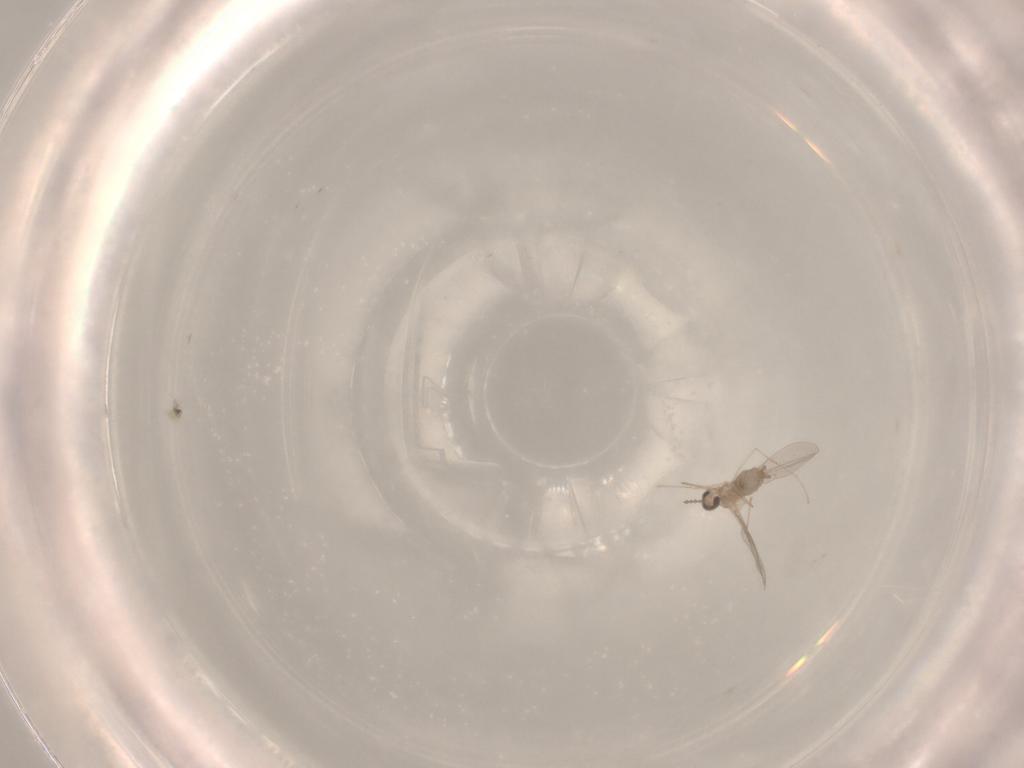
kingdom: Animalia
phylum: Arthropoda
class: Insecta
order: Diptera
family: Cecidomyiidae
